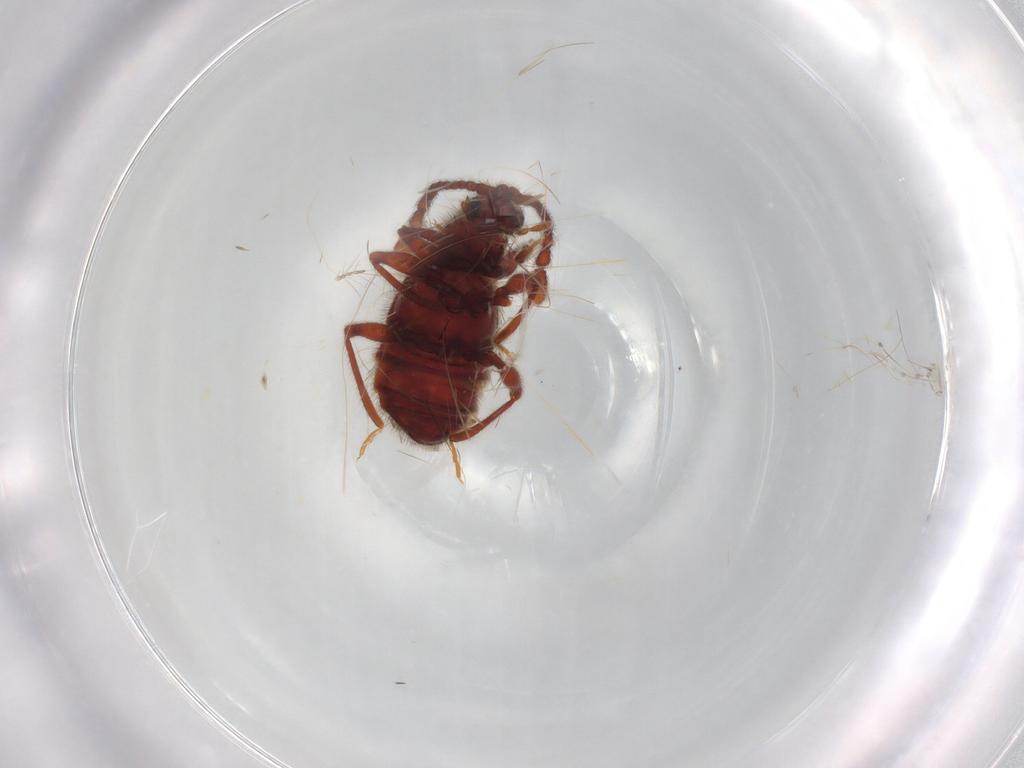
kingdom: Animalia
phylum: Arthropoda
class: Insecta
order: Coleoptera
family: Staphylinidae
